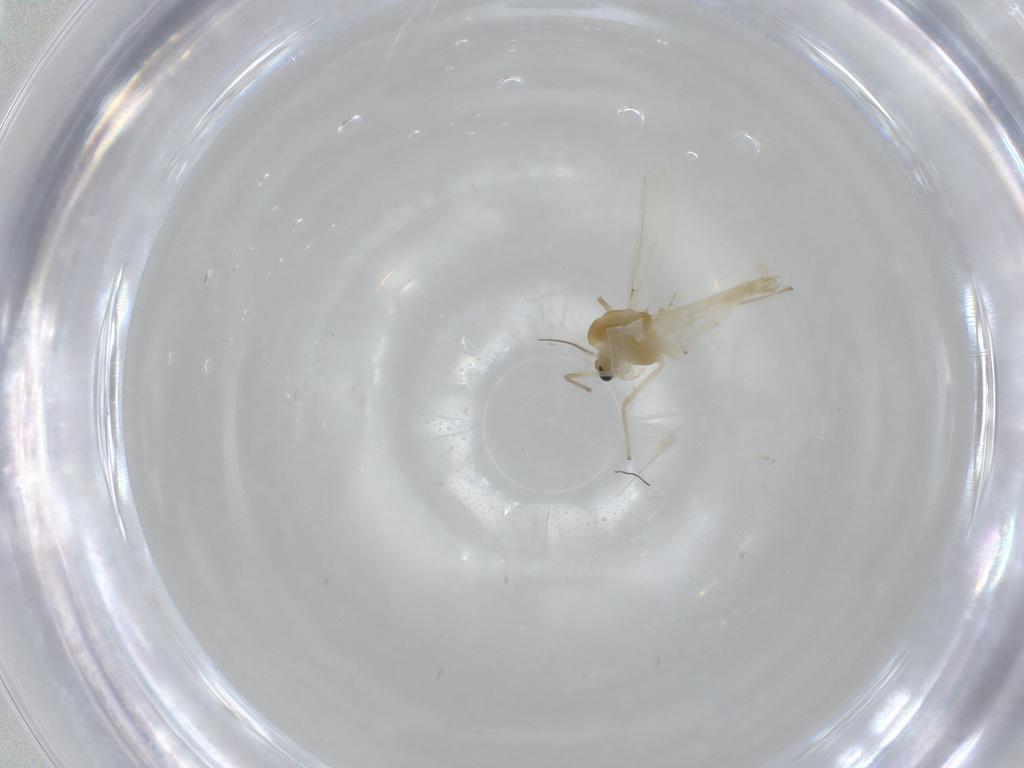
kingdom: Animalia
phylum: Arthropoda
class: Insecta
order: Diptera
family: Chironomidae
